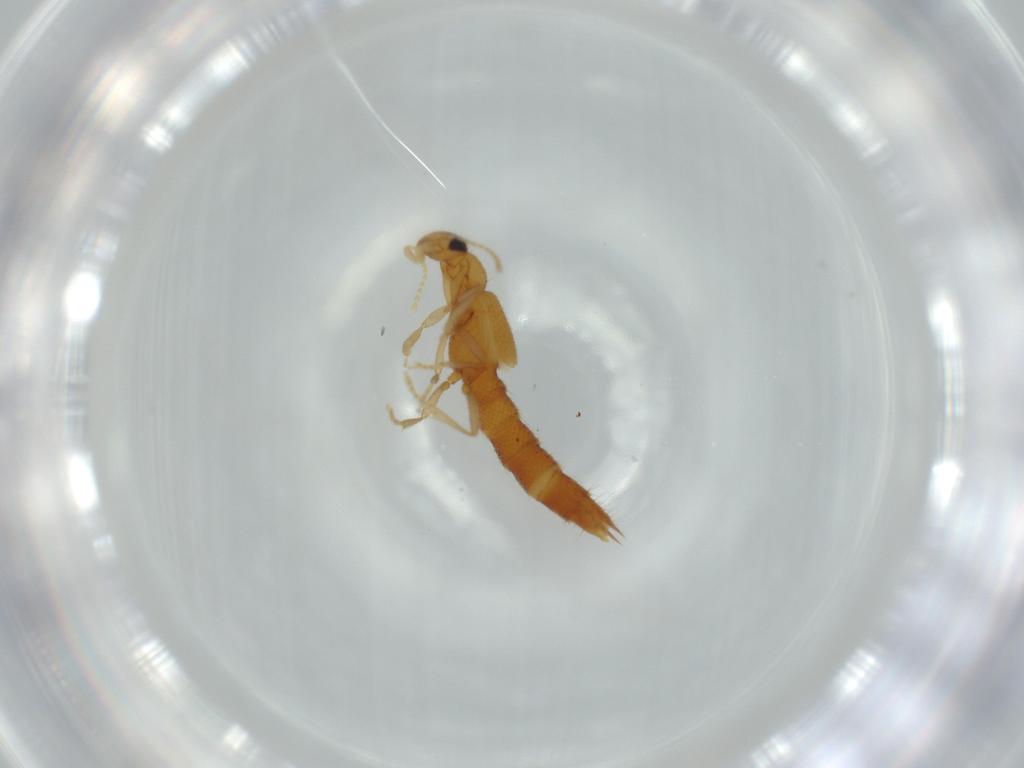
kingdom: Animalia
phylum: Arthropoda
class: Insecta
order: Coleoptera
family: Staphylinidae
